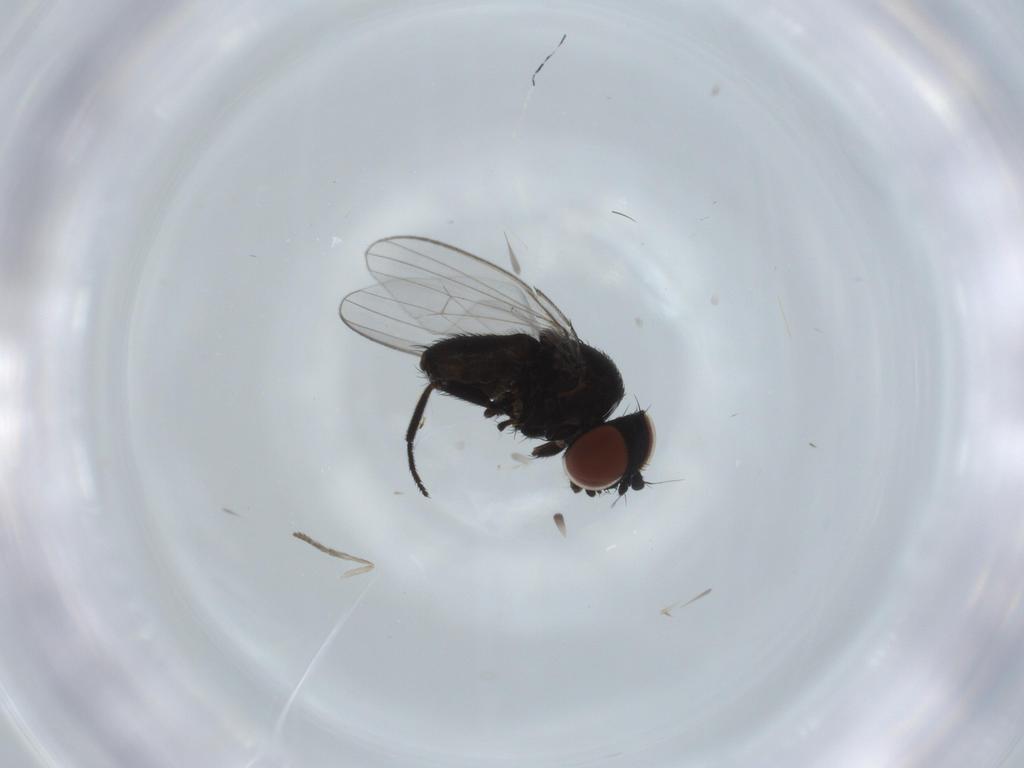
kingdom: Animalia
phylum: Arthropoda
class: Insecta
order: Diptera
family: Milichiidae
